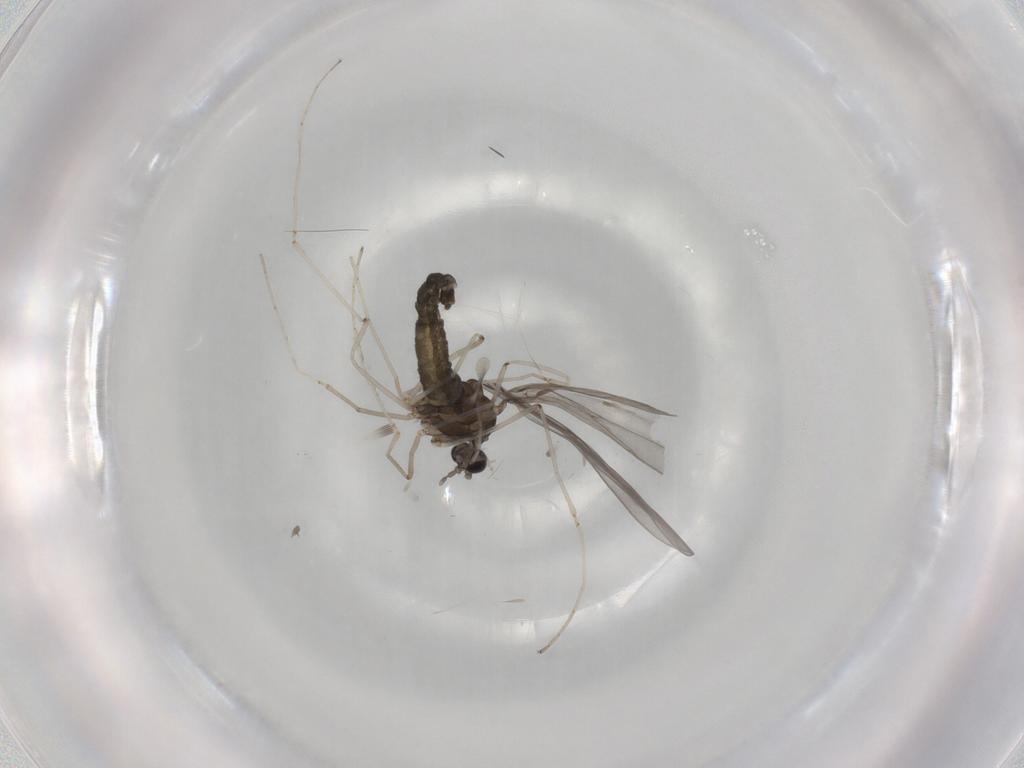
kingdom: Animalia
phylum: Arthropoda
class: Insecta
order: Diptera
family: Cecidomyiidae
